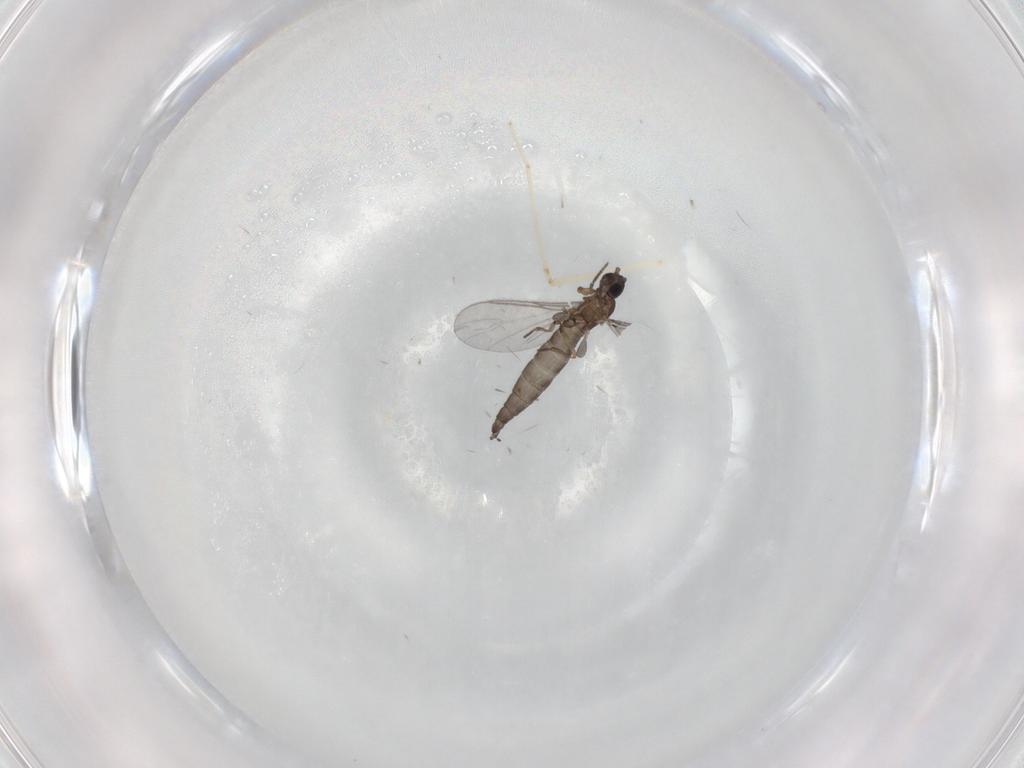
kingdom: Animalia
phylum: Arthropoda
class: Insecta
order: Diptera
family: Sciaridae
